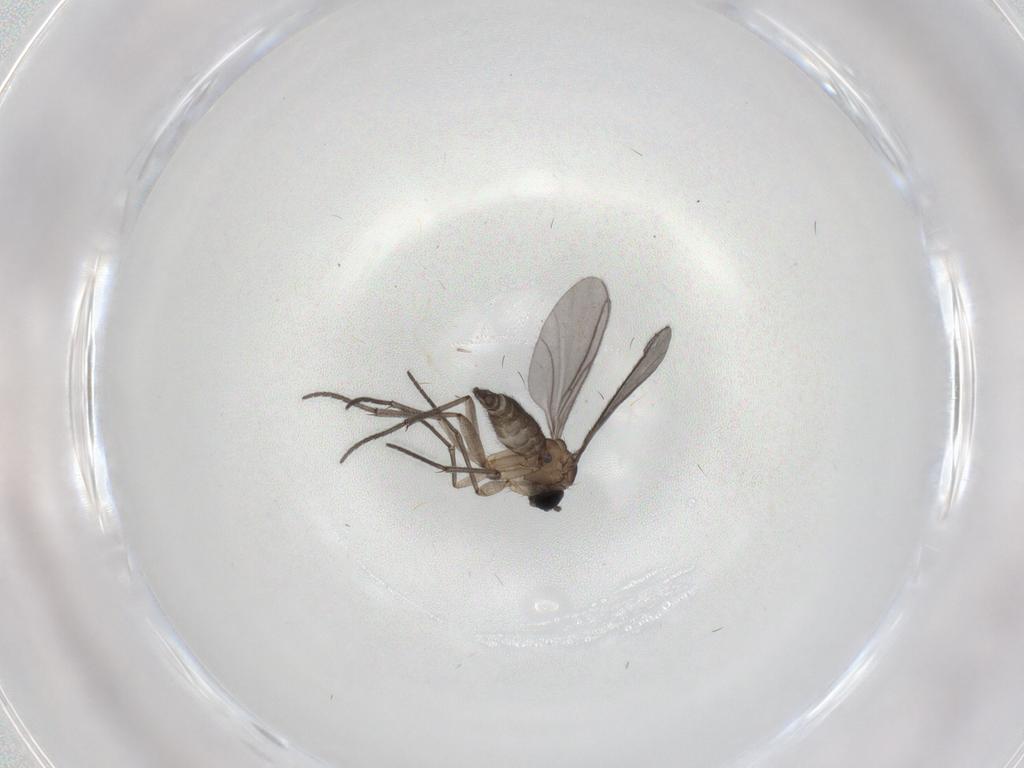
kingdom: Animalia
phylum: Arthropoda
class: Insecta
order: Diptera
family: Sciaridae
